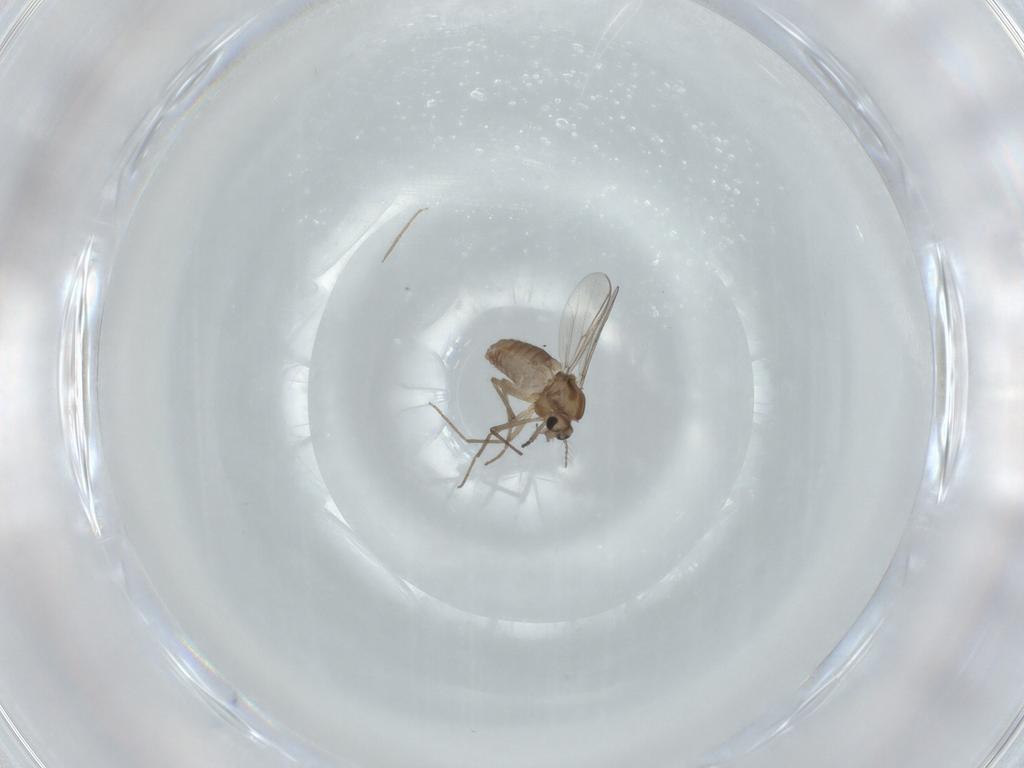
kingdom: Animalia
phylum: Arthropoda
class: Insecta
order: Diptera
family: Chironomidae
